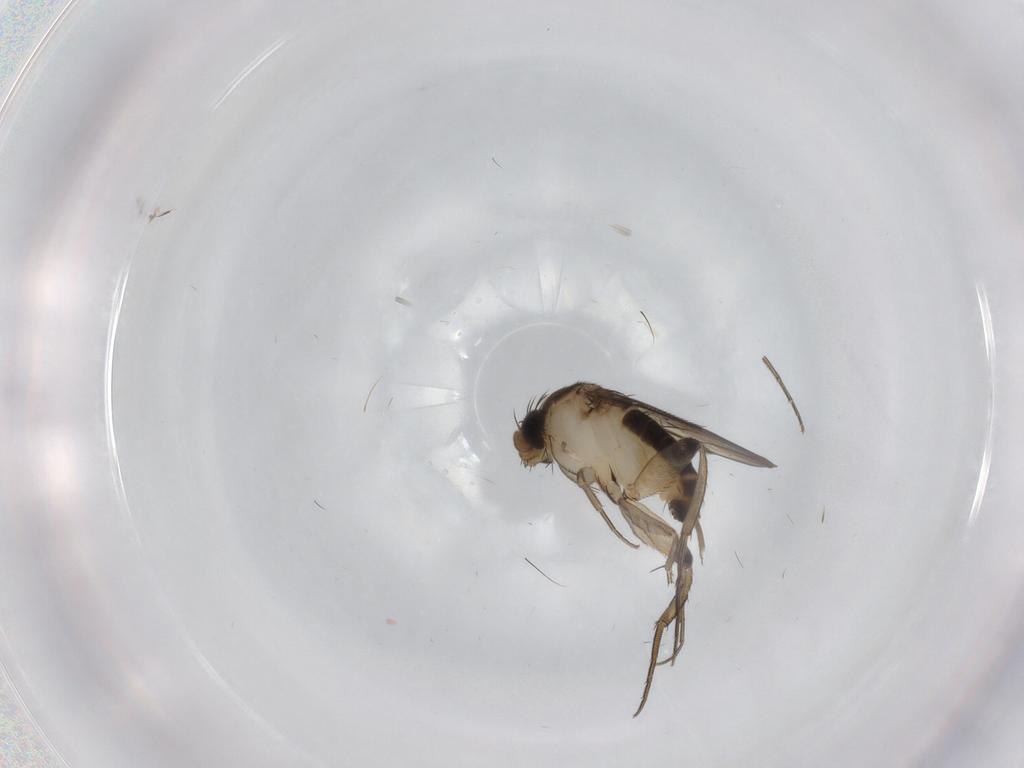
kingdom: Animalia
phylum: Arthropoda
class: Insecta
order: Diptera
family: Phoridae
